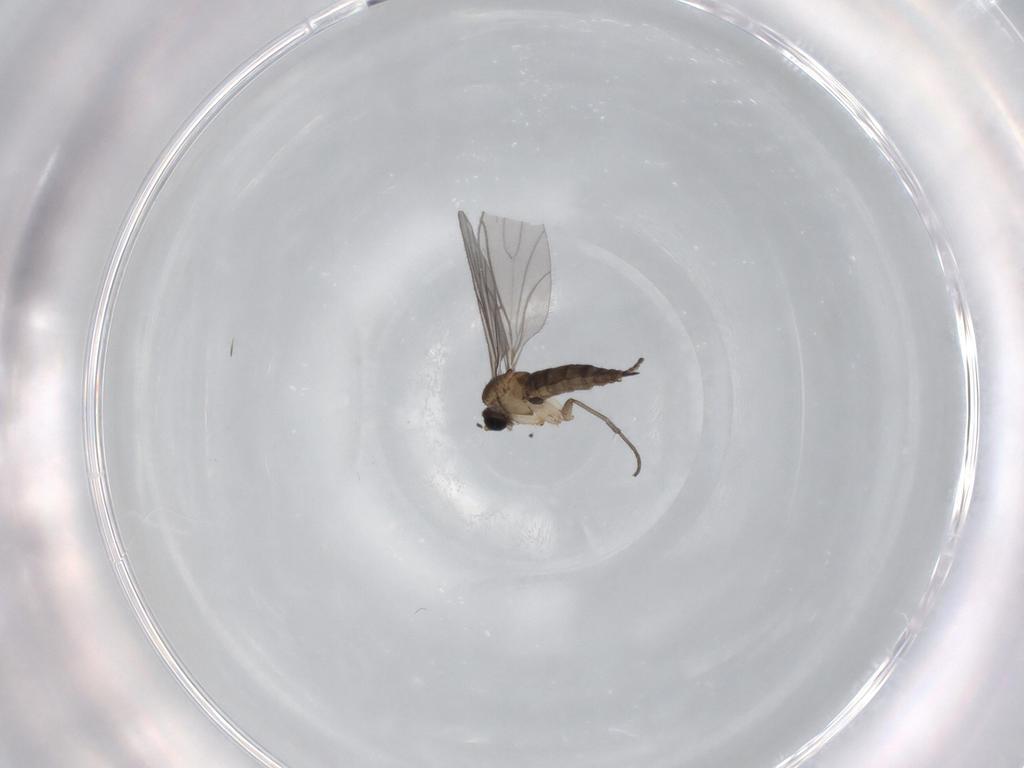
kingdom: Animalia
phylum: Arthropoda
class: Insecta
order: Diptera
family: Sciaridae
